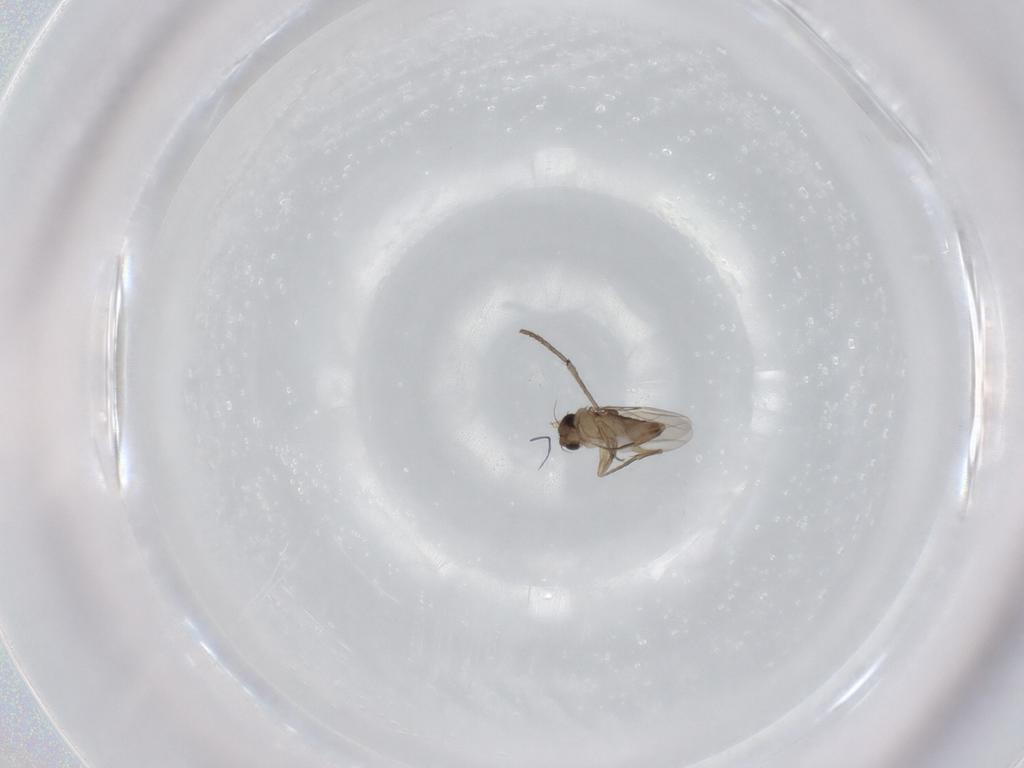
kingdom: Animalia
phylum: Arthropoda
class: Insecta
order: Diptera
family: Psychodidae
